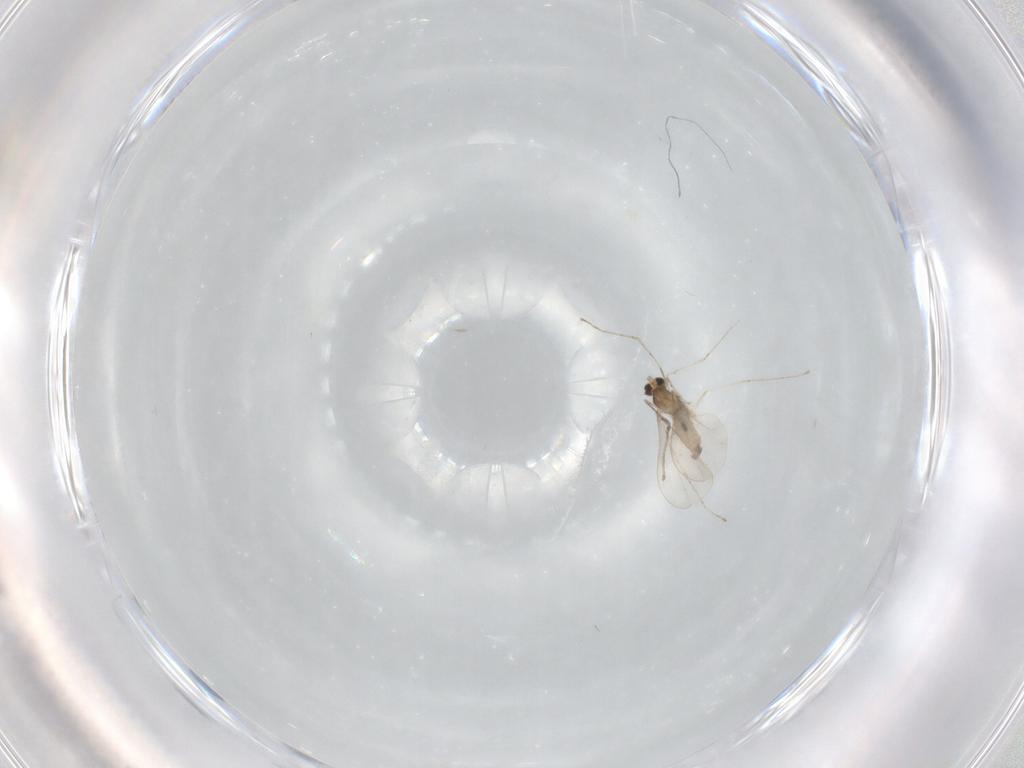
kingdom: Animalia
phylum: Arthropoda
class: Insecta
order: Diptera
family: Cecidomyiidae
